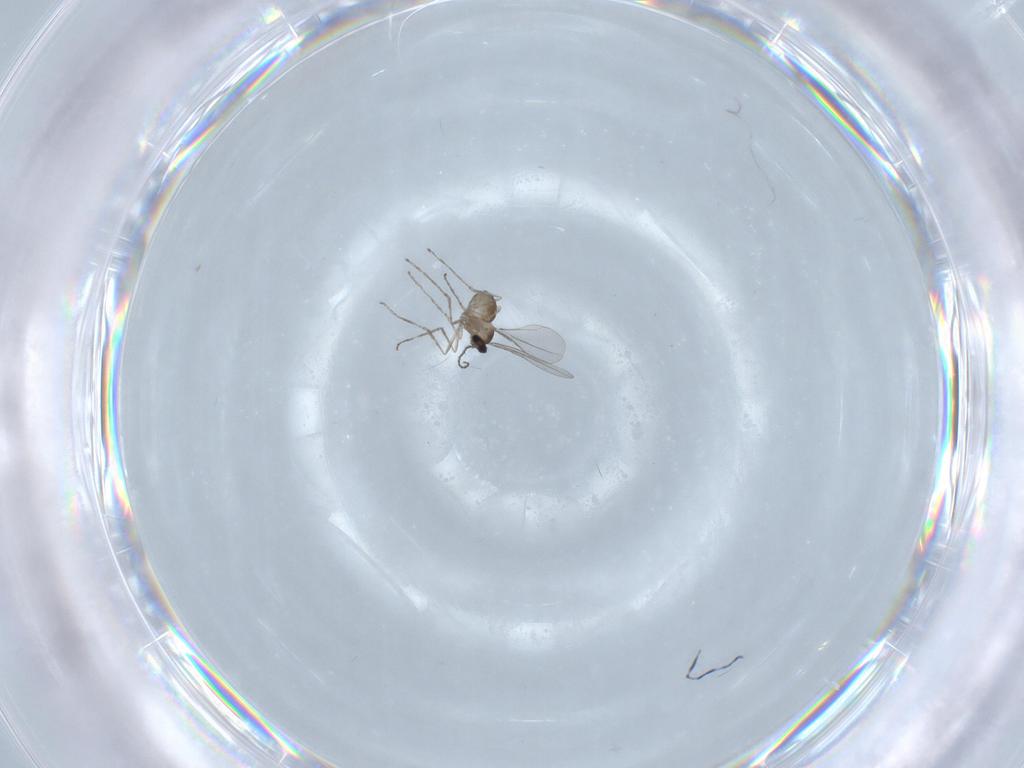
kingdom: Animalia
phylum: Arthropoda
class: Insecta
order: Diptera
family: Cecidomyiidae
